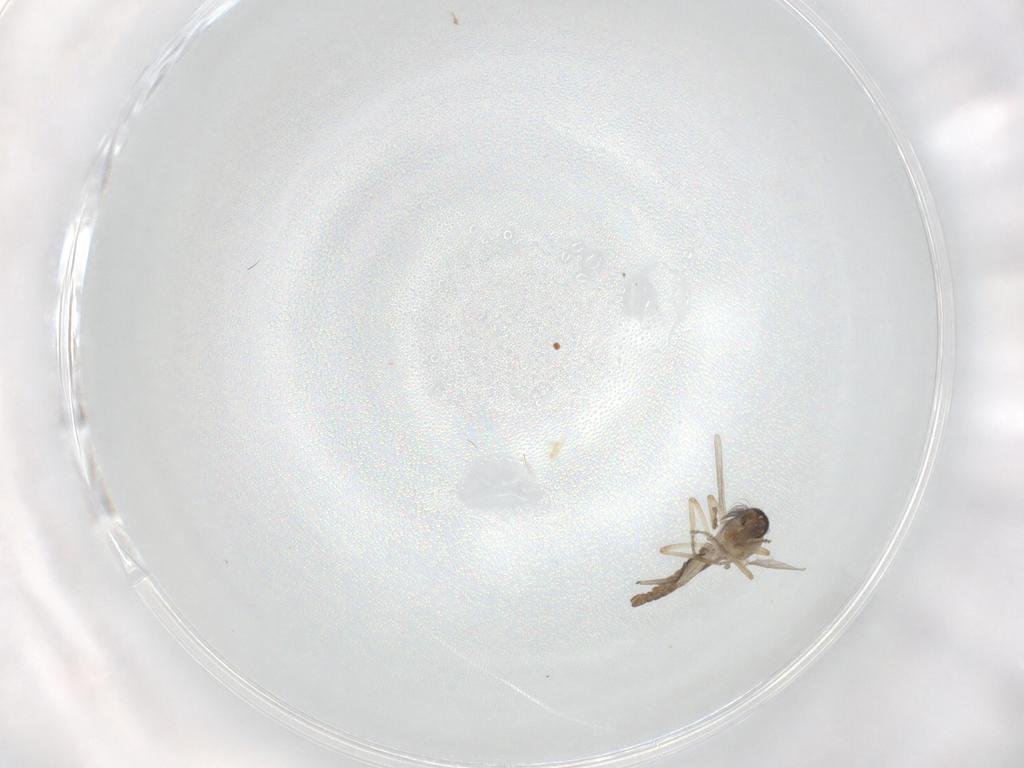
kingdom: Animalia
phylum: Arthropoda
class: Insecta
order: Diptera
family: Ceratopogonidae
